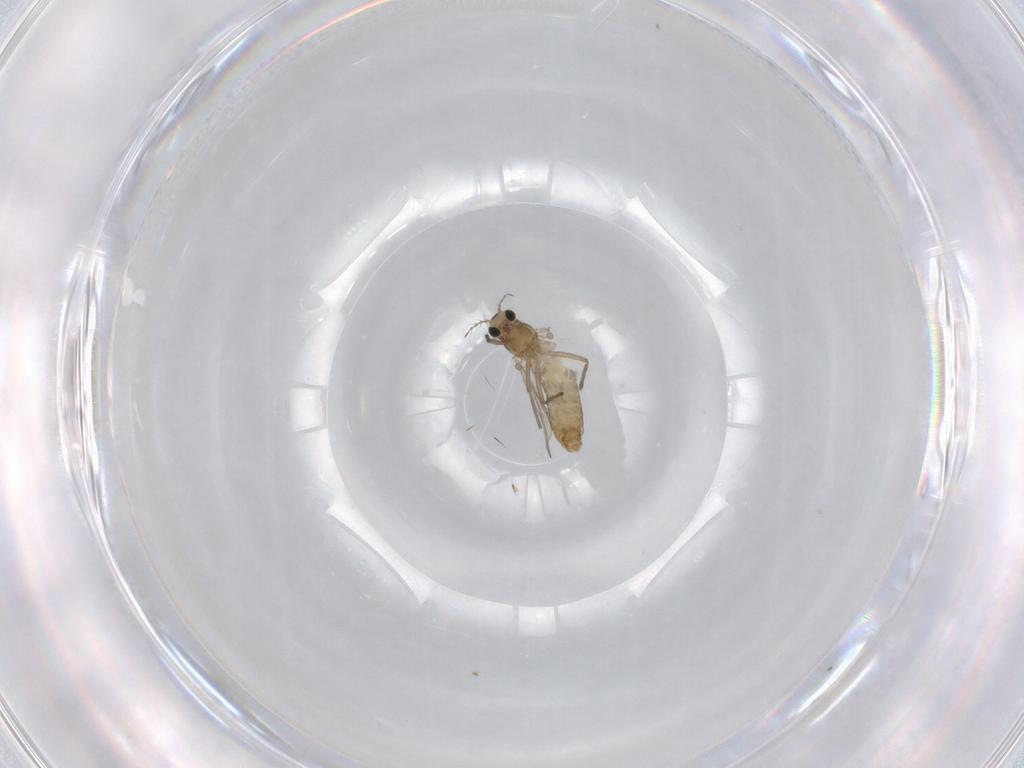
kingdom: Animalia
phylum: Arthropoda
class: Insecta
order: Diptera
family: Chironomidae
